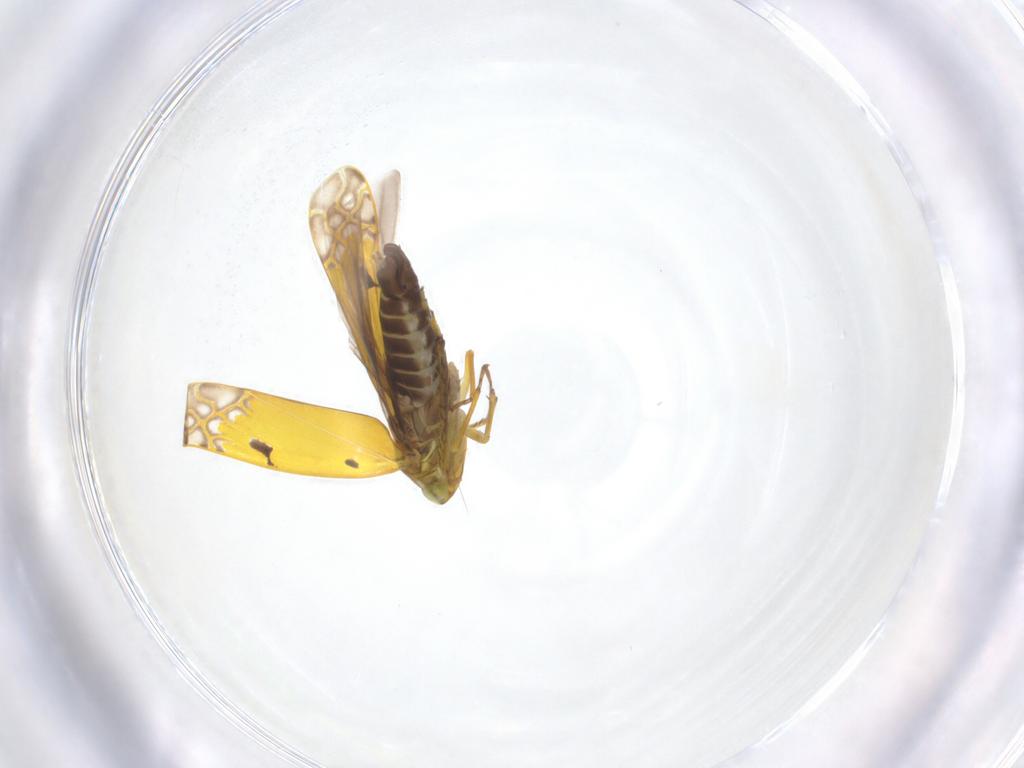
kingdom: Animalia
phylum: Arthropoda
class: Insecta
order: Hemiptera
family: Cicadellidae
